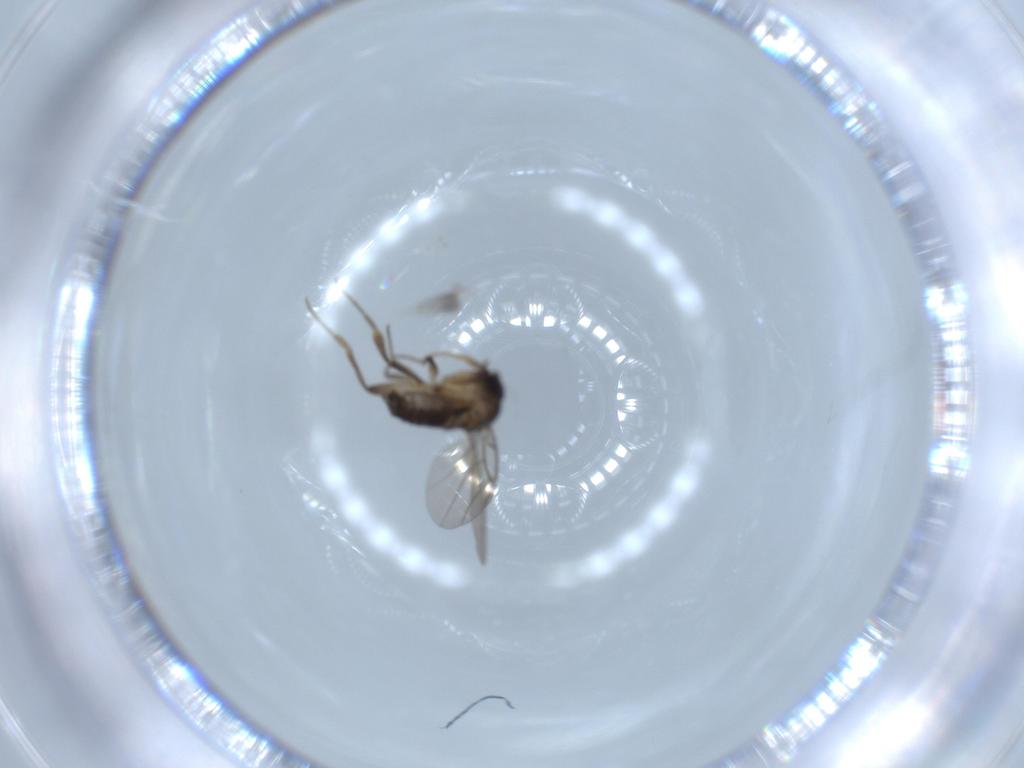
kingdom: Animalia
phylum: Arthropoda
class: Insecta
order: Diptera
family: Phoridae
